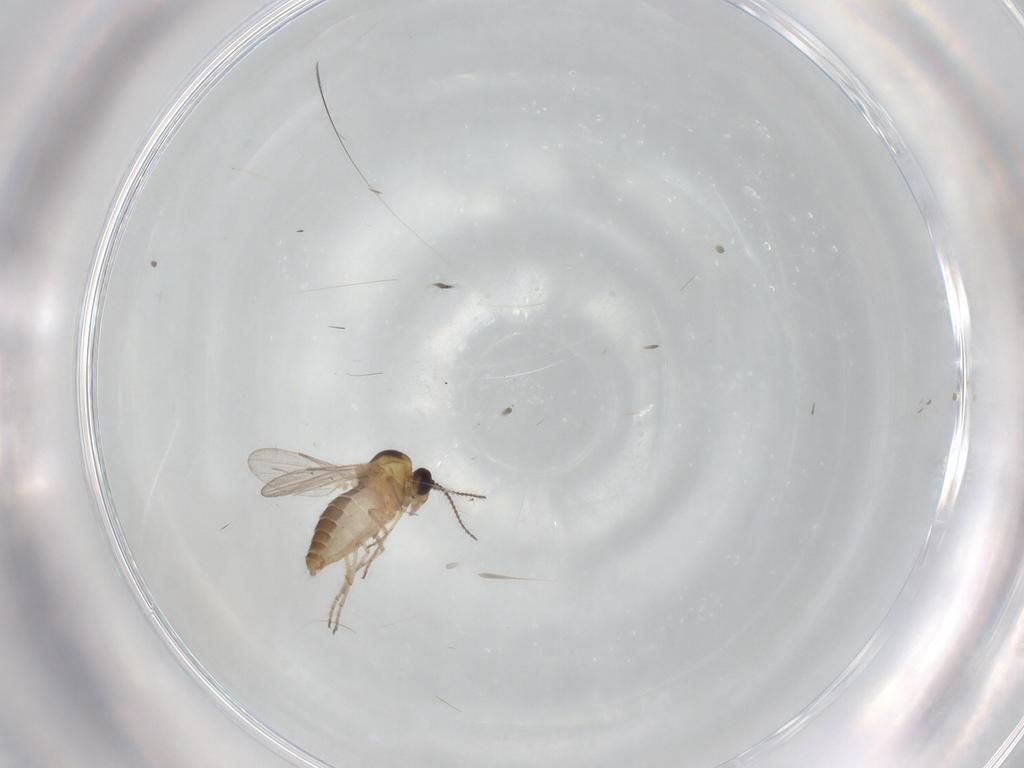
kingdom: Animalia
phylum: Arthropoda
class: Insecta
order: Diptera
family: Ceratopogonidae
